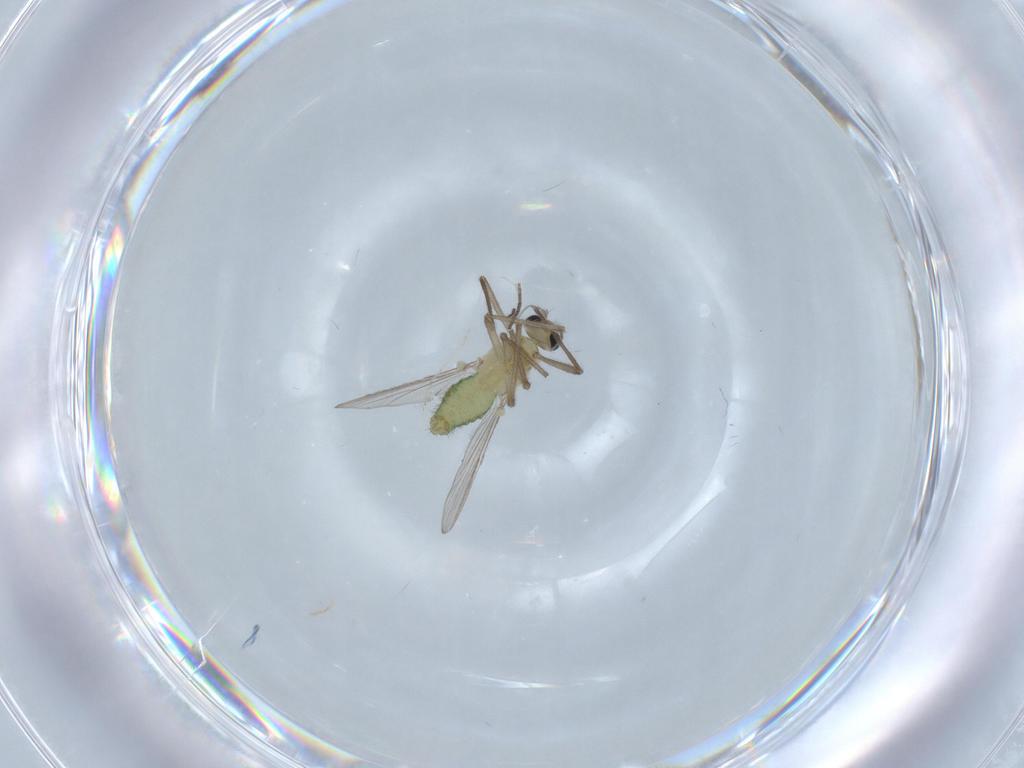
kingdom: Animalia
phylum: Arthropoda
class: Insecta
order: Diptera
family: Chironomidae
